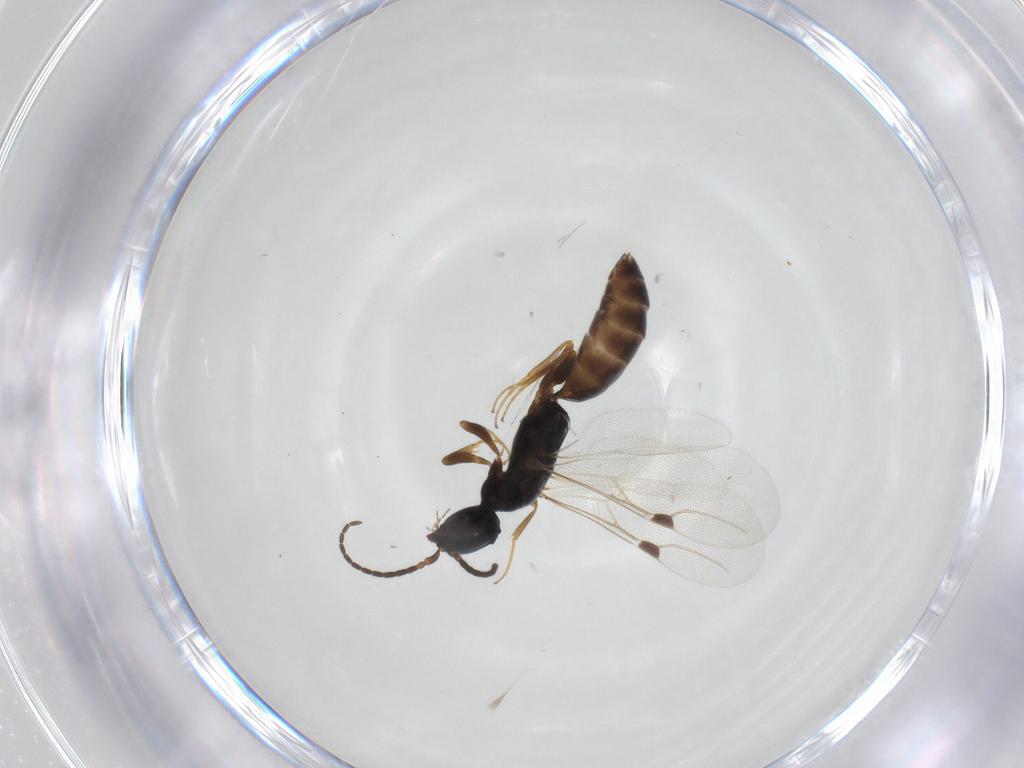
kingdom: Animalia
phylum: Arthropoda
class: Insecta
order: Hymenoptera
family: Bethylidae
